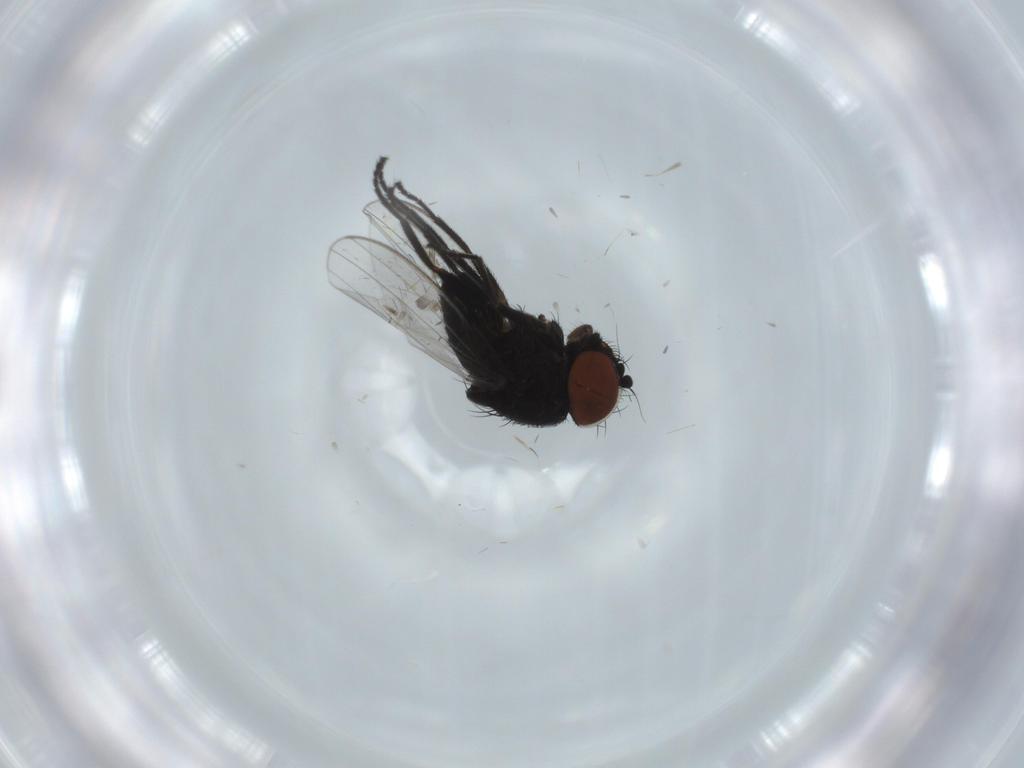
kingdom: Animalia
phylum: Arthropoda
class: Insecta
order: Diptera
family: Milichiidae
